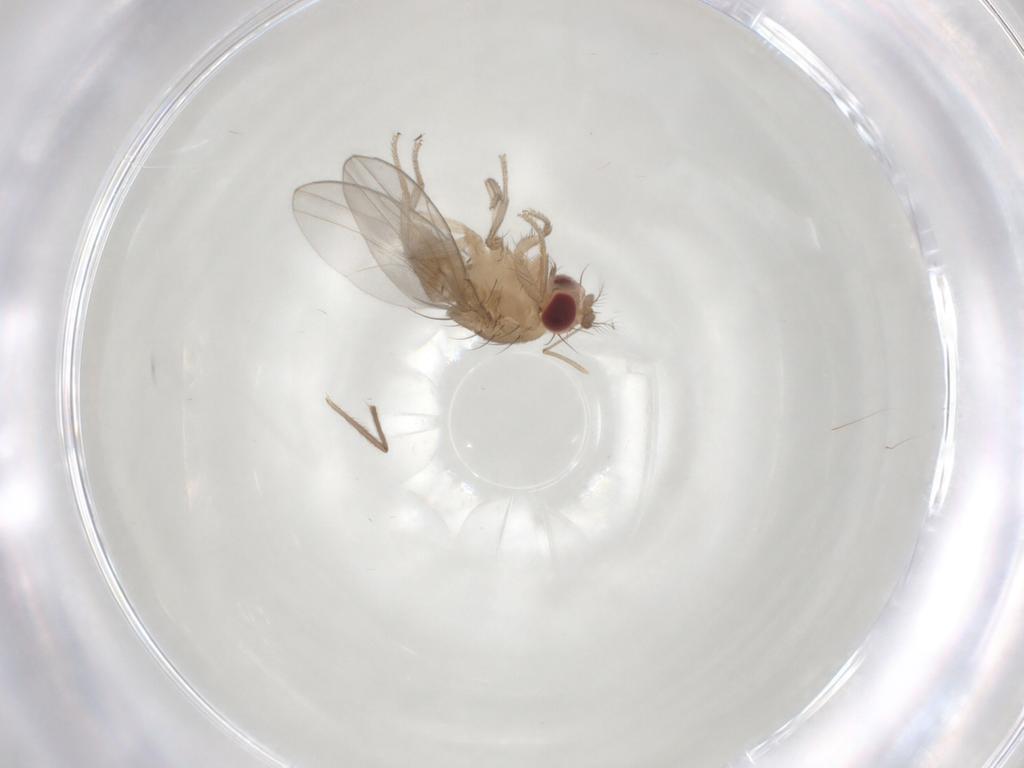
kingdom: Animalia
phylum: Arthropoda
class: Insecta
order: Diptera
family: Drosophilidae
